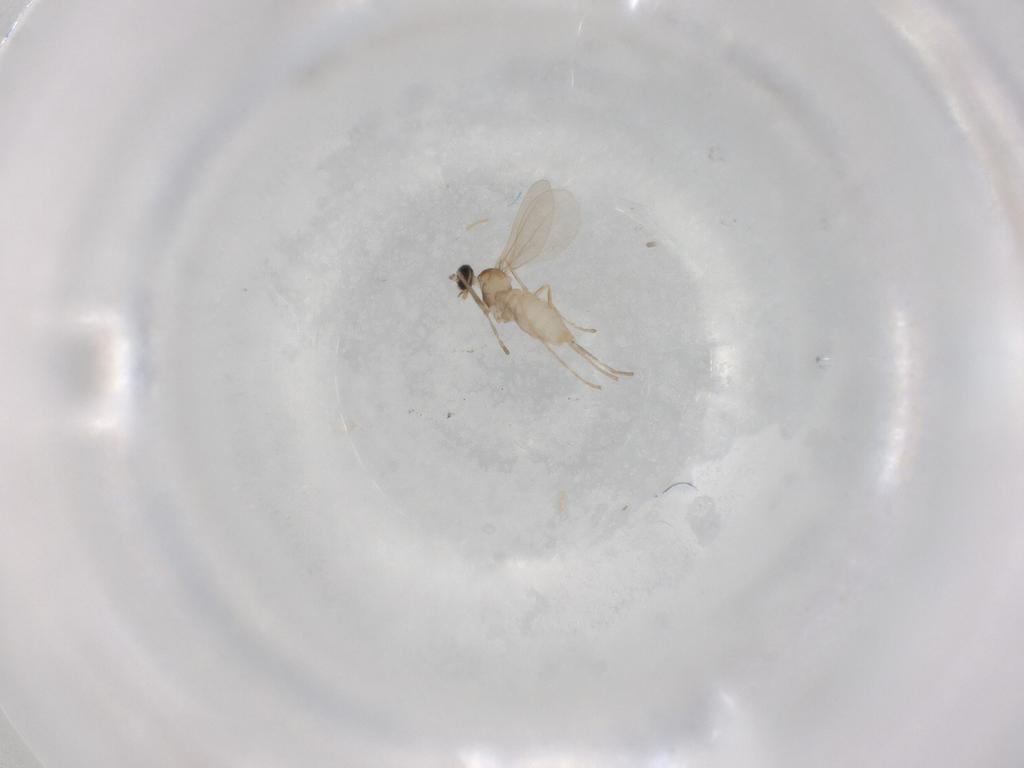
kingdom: Animalia
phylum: Arthropoda
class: Insecta
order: Diptera
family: Cecidomyiidae
